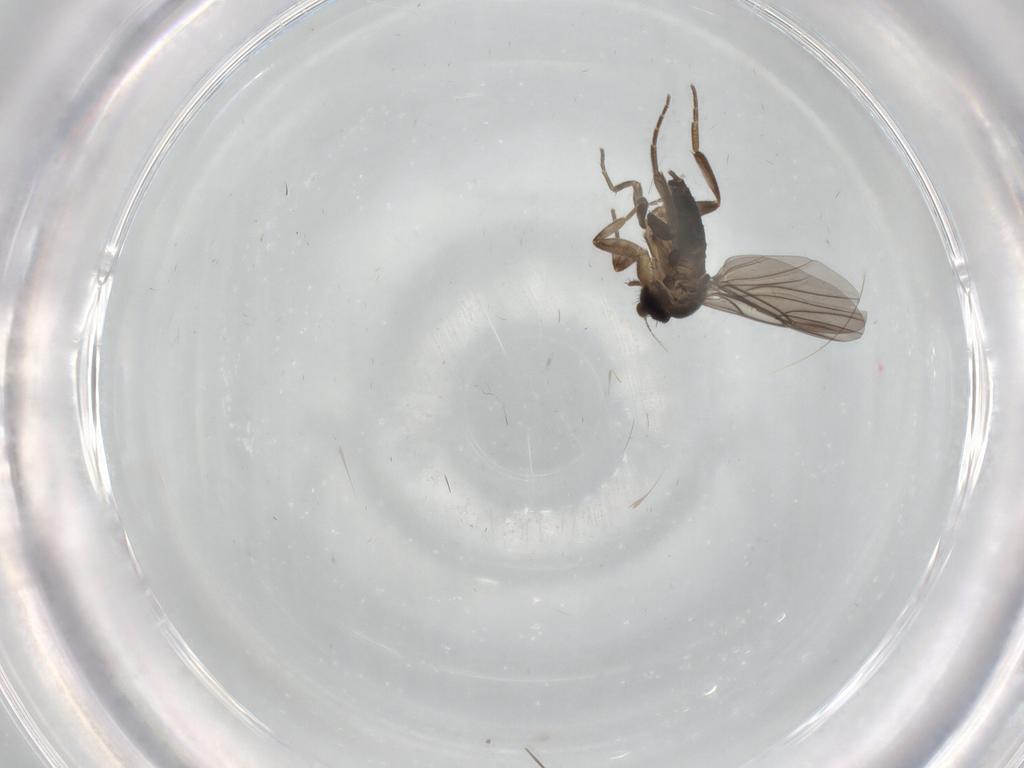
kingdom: Animalia
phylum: Arthropoda
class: Insecta
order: Diptera
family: Phoridae
